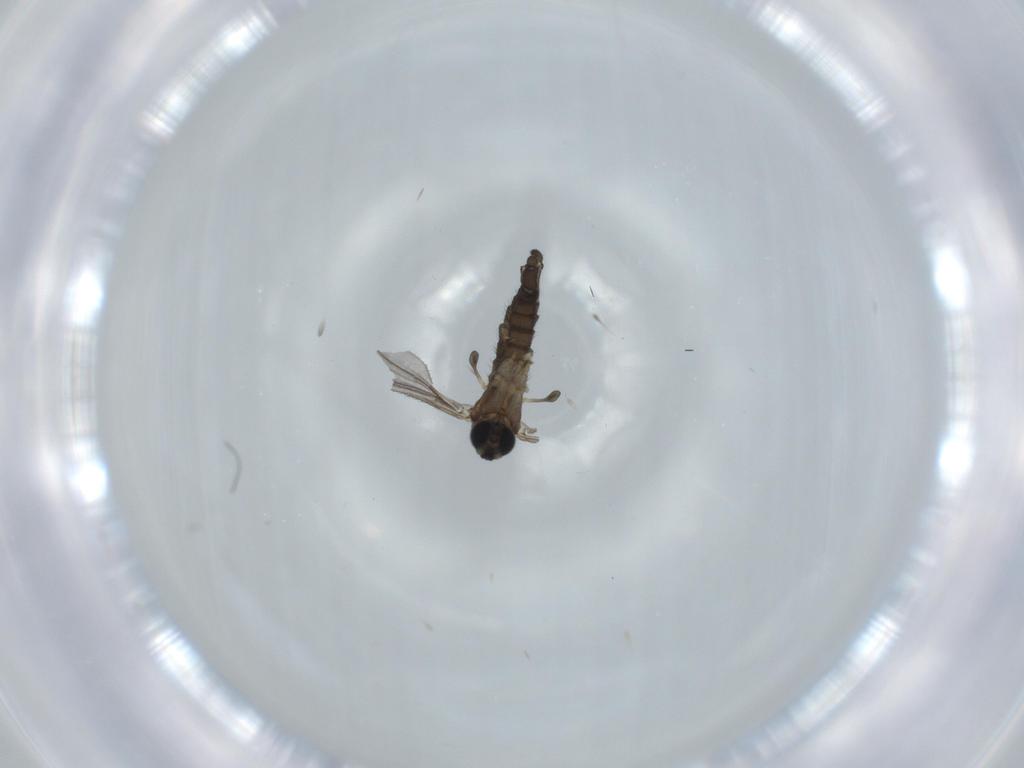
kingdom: Animalia
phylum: Arthropoda
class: Insecta
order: Diptera
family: Sciaridae
